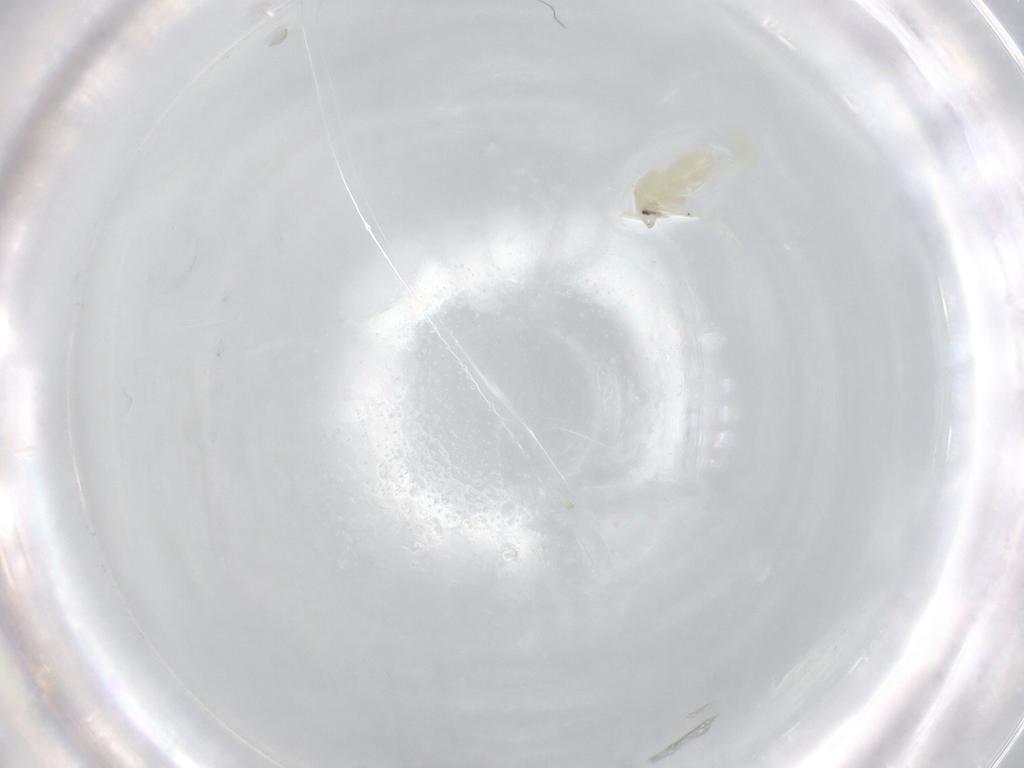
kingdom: Animalia
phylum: Arthropoda
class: Insecta
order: Hemiptera
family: Aleyrodidae
